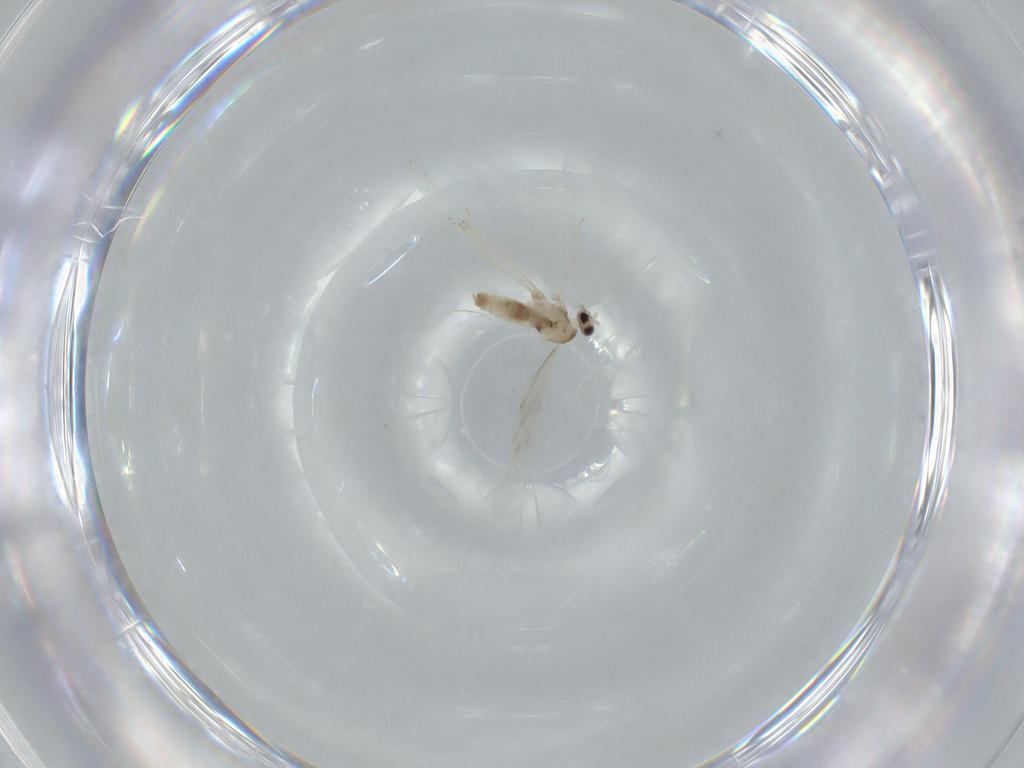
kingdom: Animalia
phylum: Arthropoda
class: Insecta
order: Diptera
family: Cecidomyiidae
